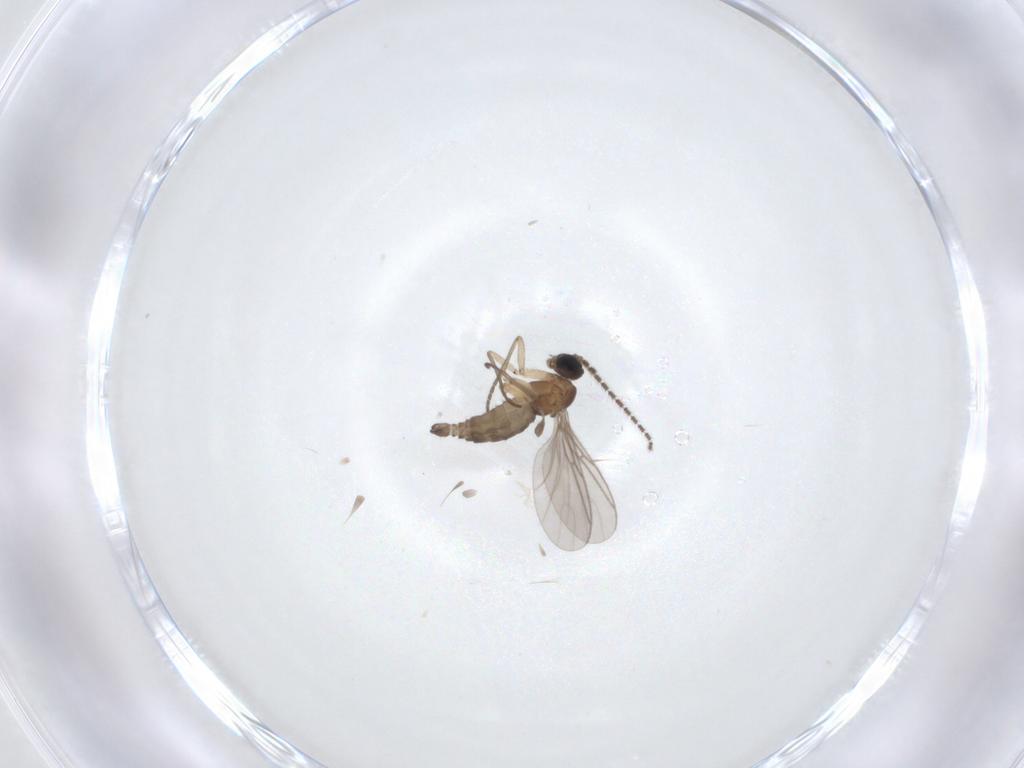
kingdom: Animalia
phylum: Arthropoda
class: Insecta
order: Diptera
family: Sciaridae
